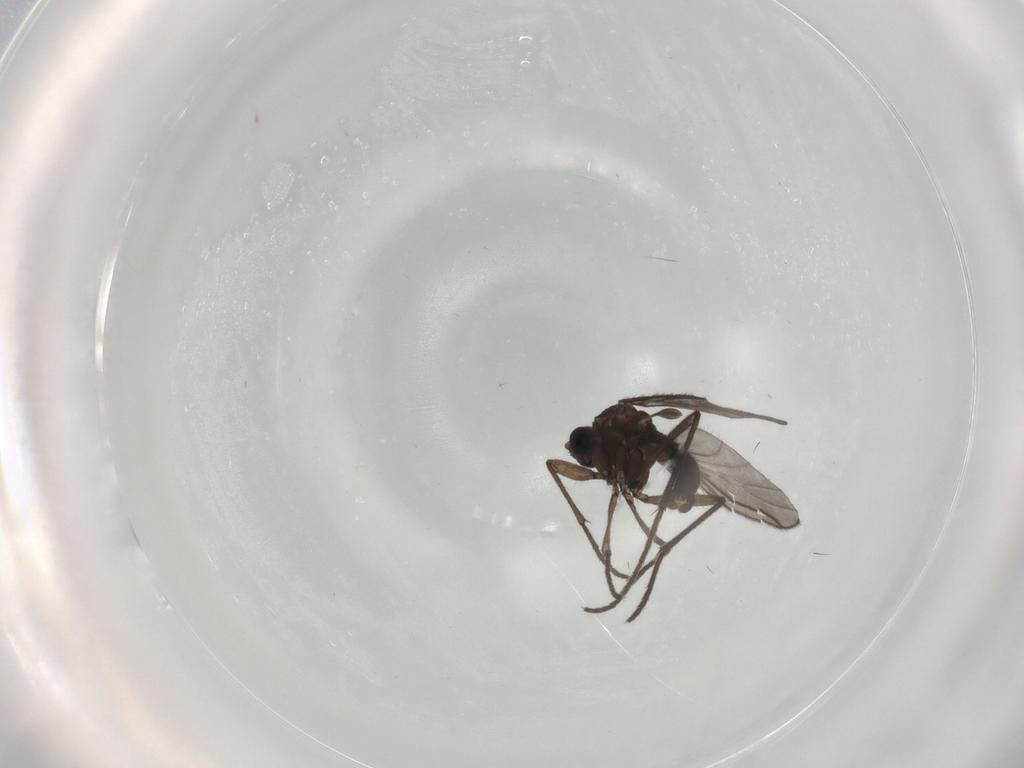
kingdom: Animalia
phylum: Arthropoda
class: Insecta
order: Diptera
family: Sciaridae
